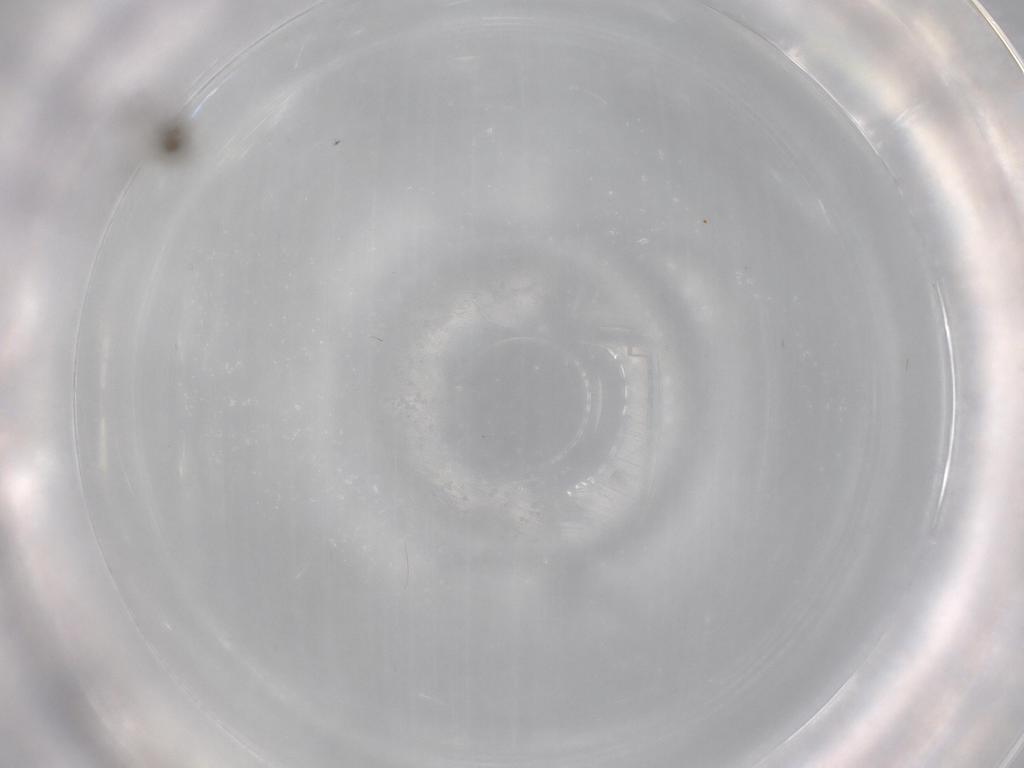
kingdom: Animalia
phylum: Arthropoda
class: Insecta
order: Diptera
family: Cecidomyiidae
